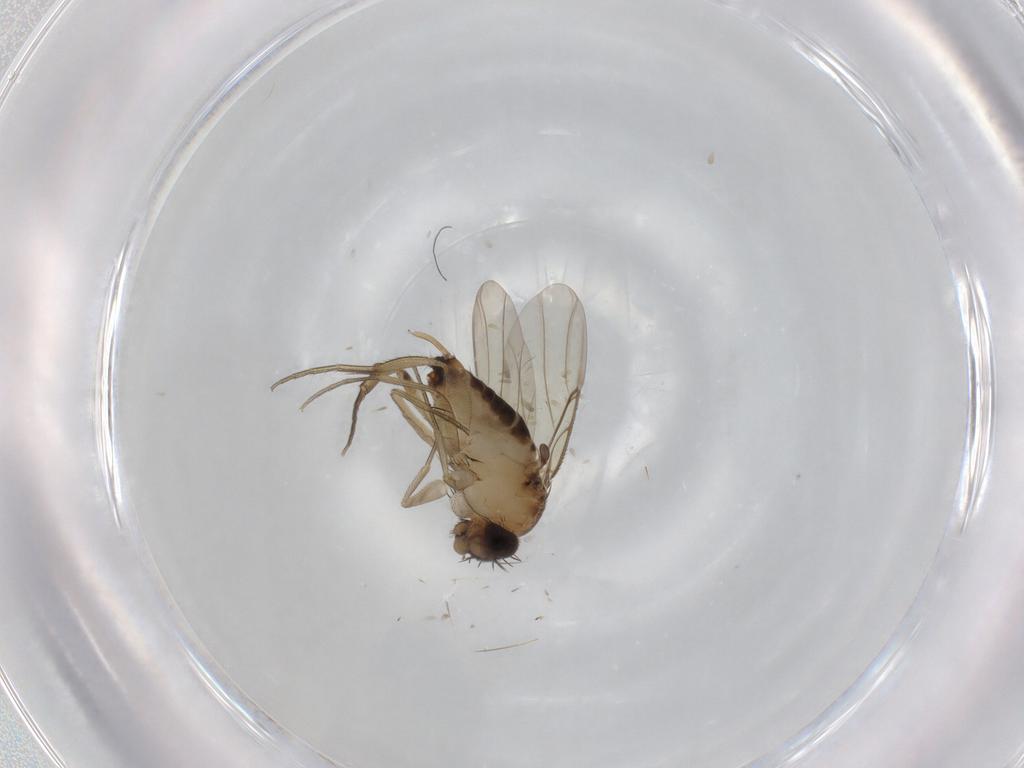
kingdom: Animalia
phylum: Arthropoda
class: Insecta
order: Diptera
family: Phoridae
